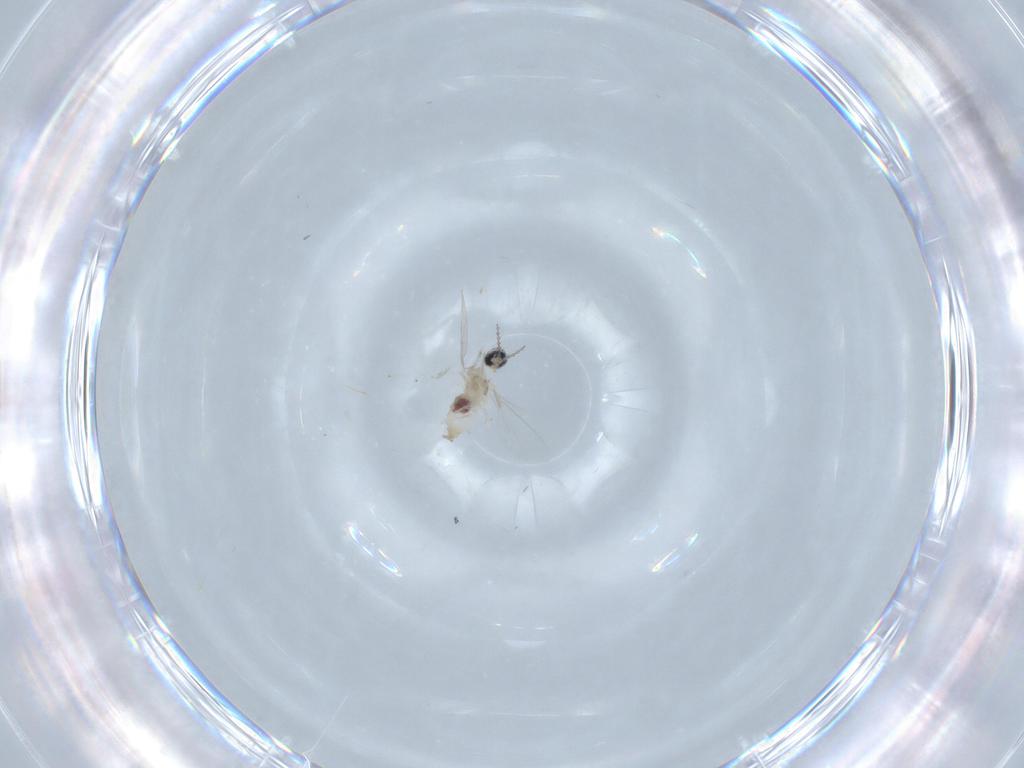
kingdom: Animalia
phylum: Arthropoda
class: Insecta
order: Diptera
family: Cecidomyiidae
